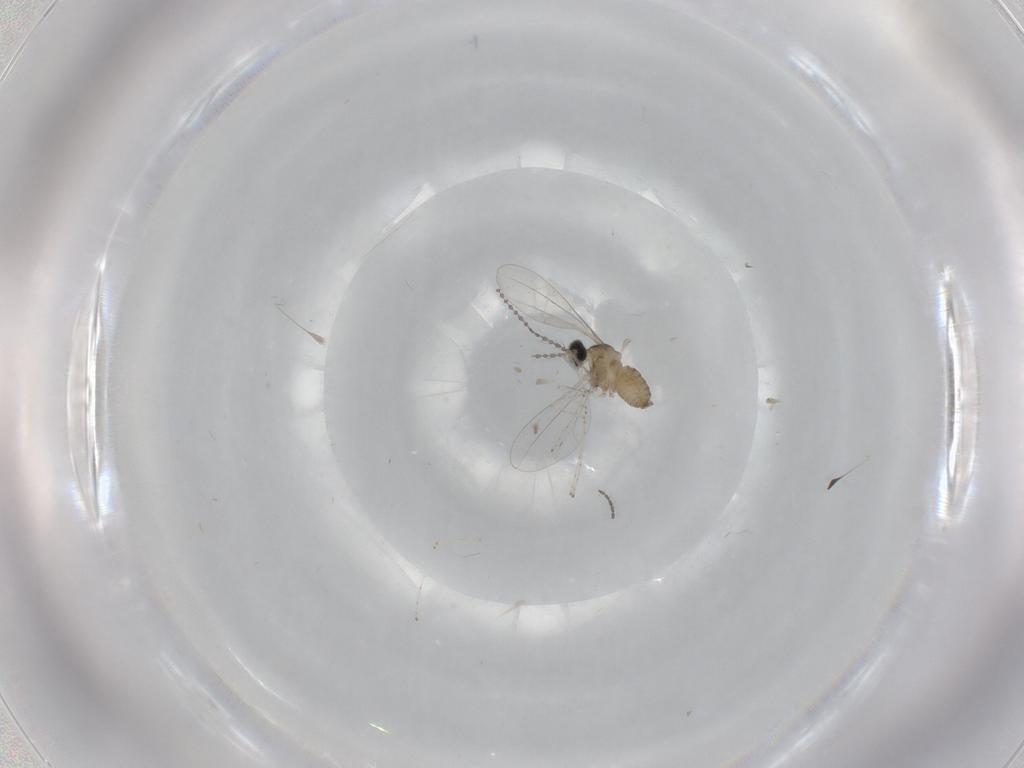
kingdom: Animalia
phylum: Arthropoda
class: Insecta
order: Diptera
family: Cecidomyiidae
